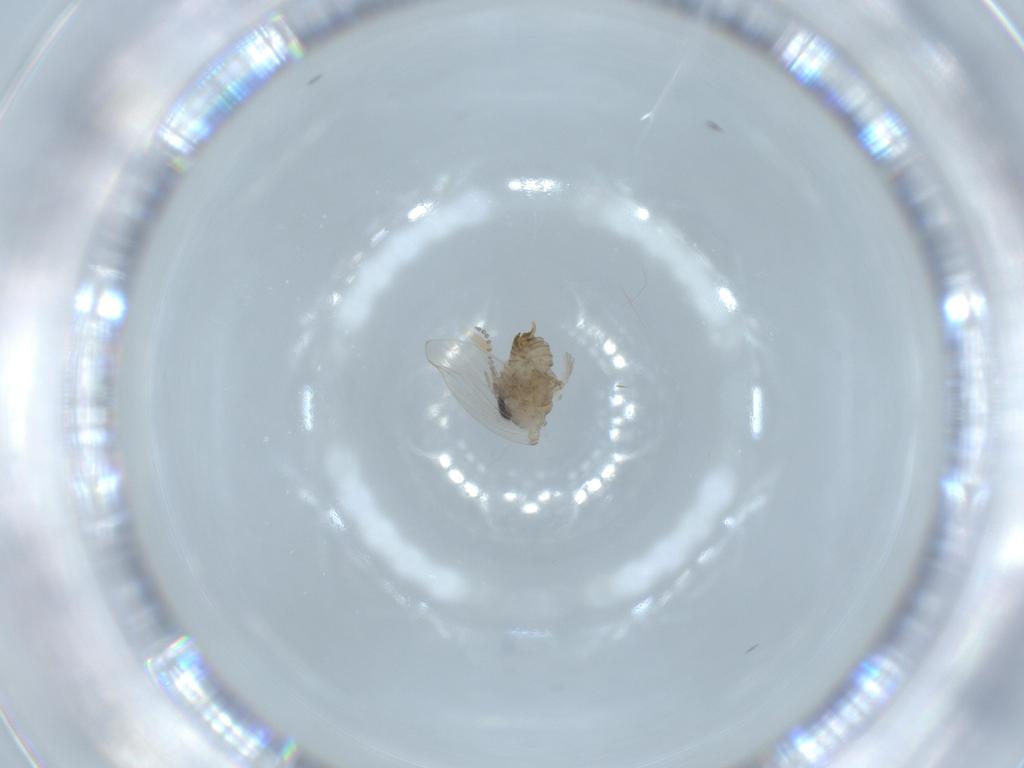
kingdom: Animalia
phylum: Arthropoda
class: Insecta
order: Diptera
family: Psychodidae
